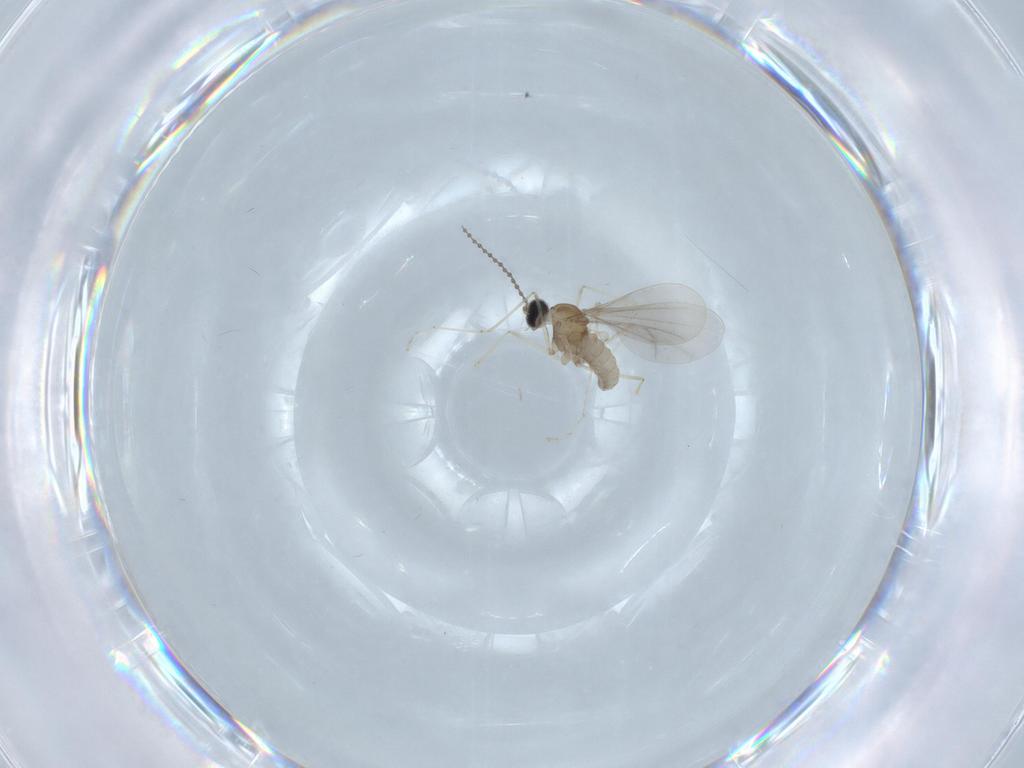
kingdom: Animalia
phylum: Arthropoda
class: Insecta
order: Diptera
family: Cecidomyiidae
